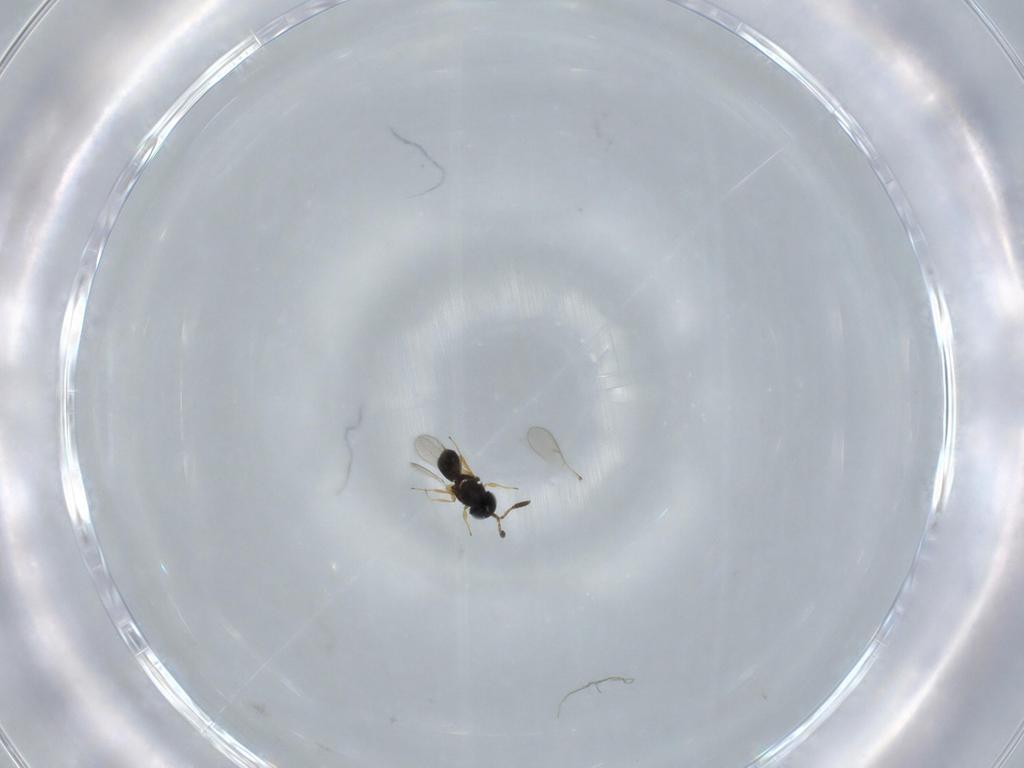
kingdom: Animalia
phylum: Arthropoda
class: Insecta
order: Hymenoptera
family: Scelionidae
